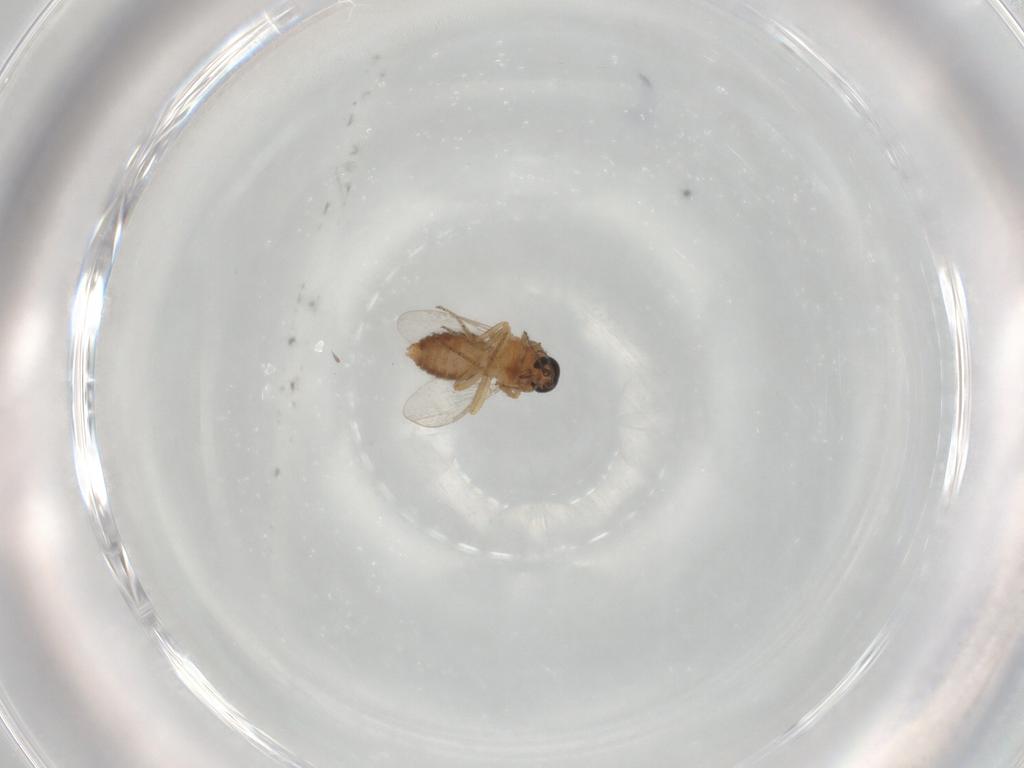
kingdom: Animalia
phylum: Arthropoda
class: Insecta
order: Diptera
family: Ceratopogonidae
